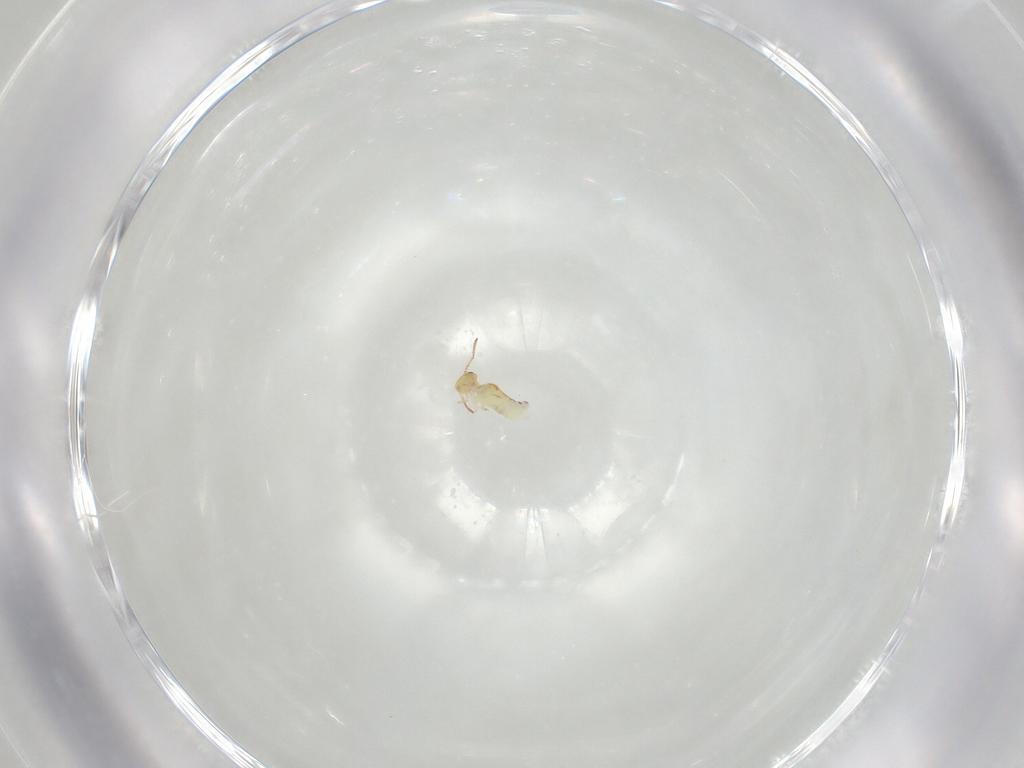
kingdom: Animalia
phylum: Arthropoda
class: Collembola
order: Symphypleona
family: Bourletiellidae
